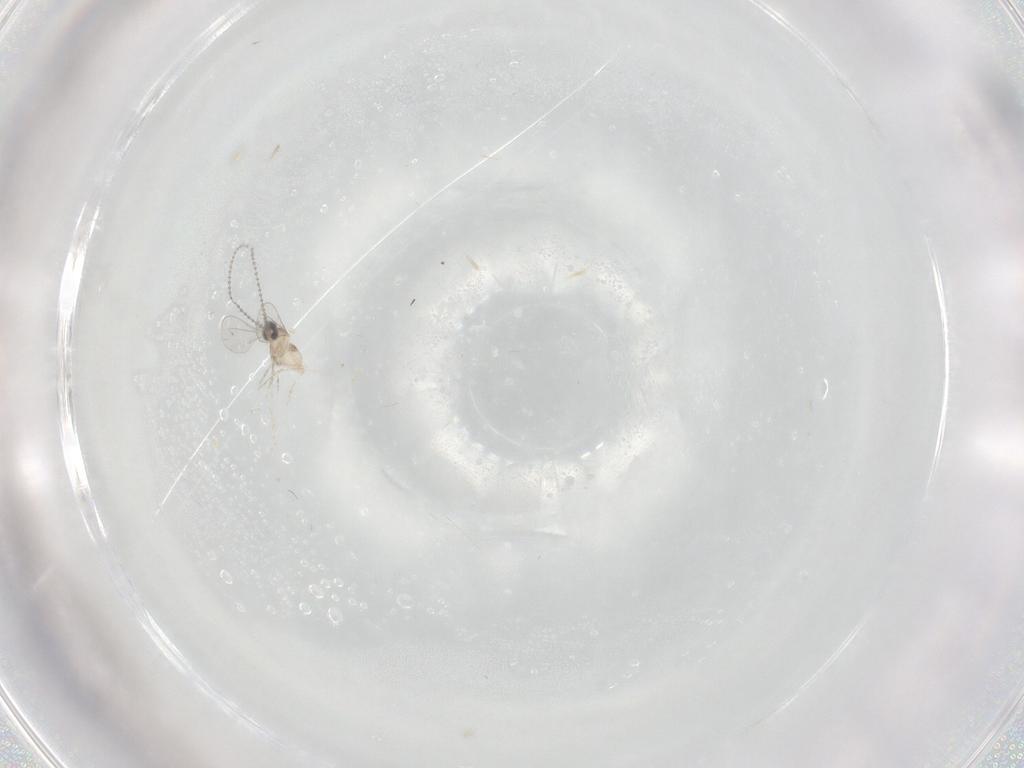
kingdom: Animalia
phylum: Arthropoda
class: Insecta
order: Diptera
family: Cecidomyiidae
